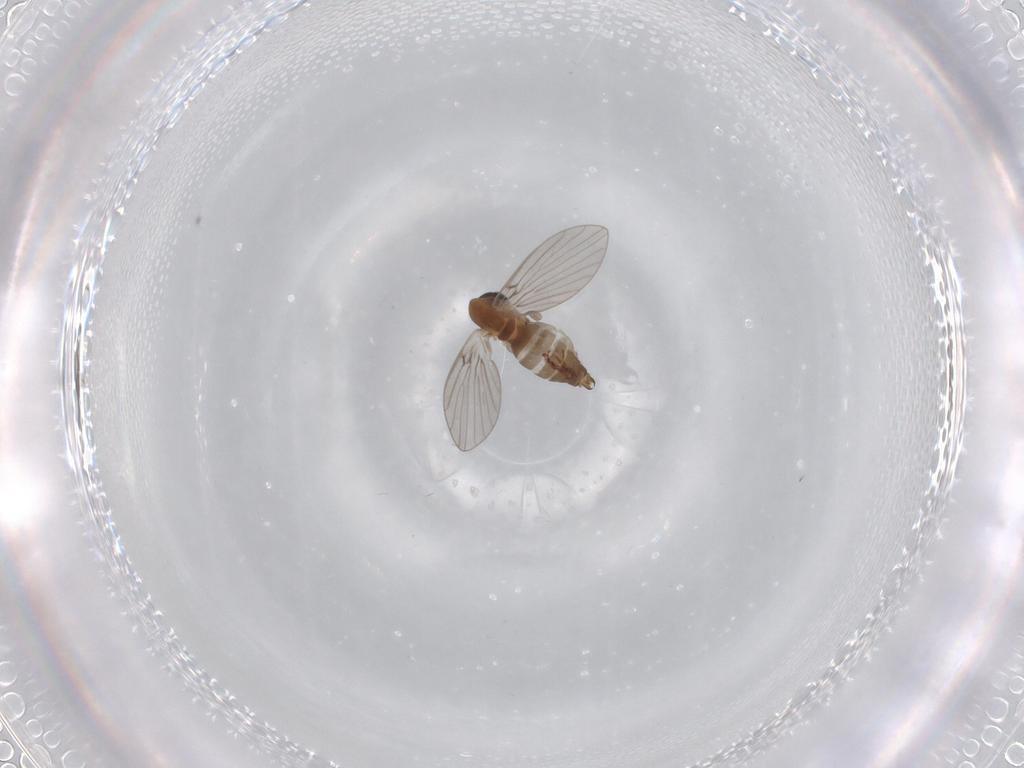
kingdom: Animalia
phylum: Arthropoda
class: Insecta
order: Diptera
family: Psychodidae
